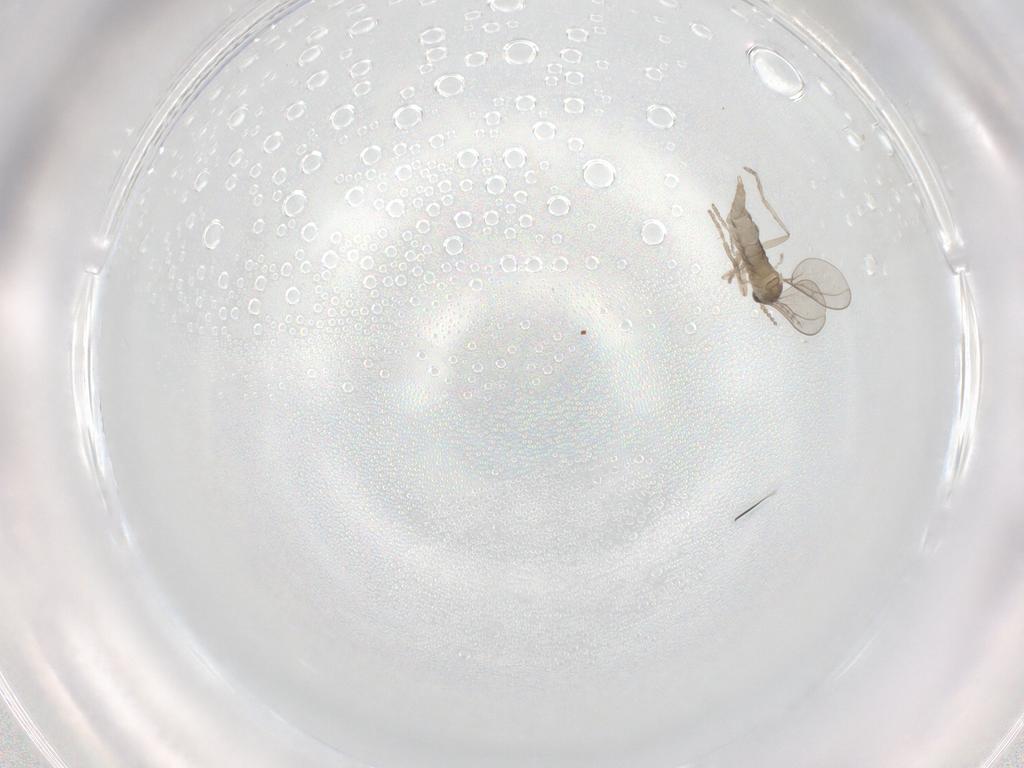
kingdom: Animalia
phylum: Arthropoda
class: Insecta
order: Diptera
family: Cecidomyiidae
